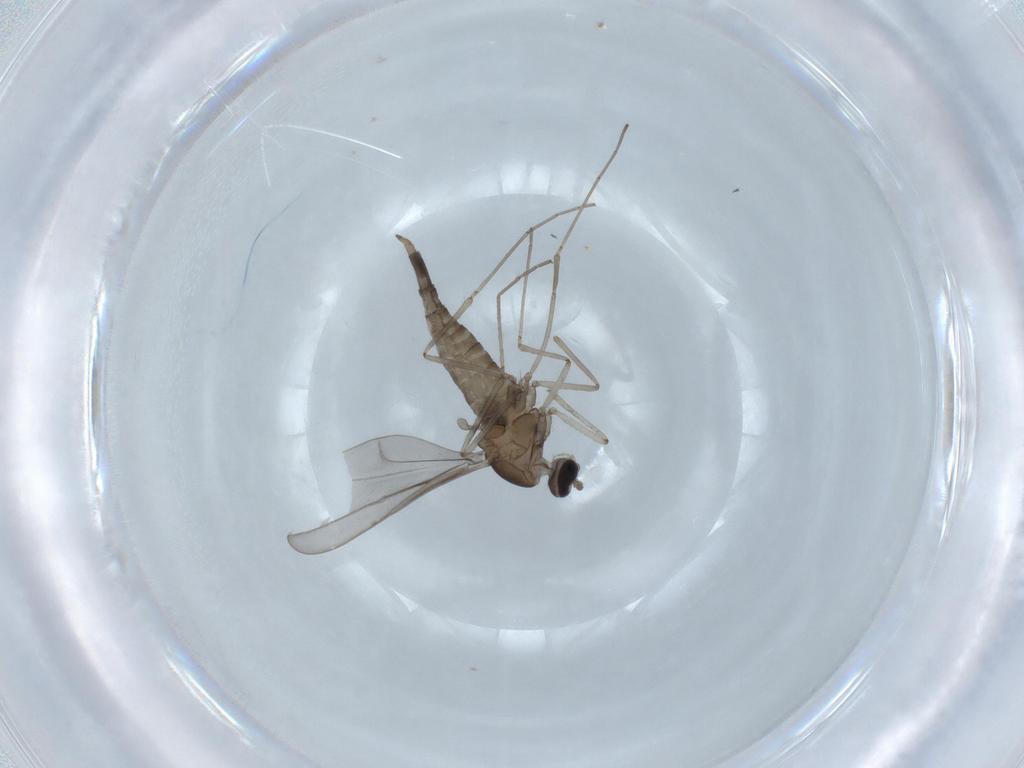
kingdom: Animalia
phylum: Arthropoda
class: Insecta
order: Diptera
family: Cecidomyiidae
